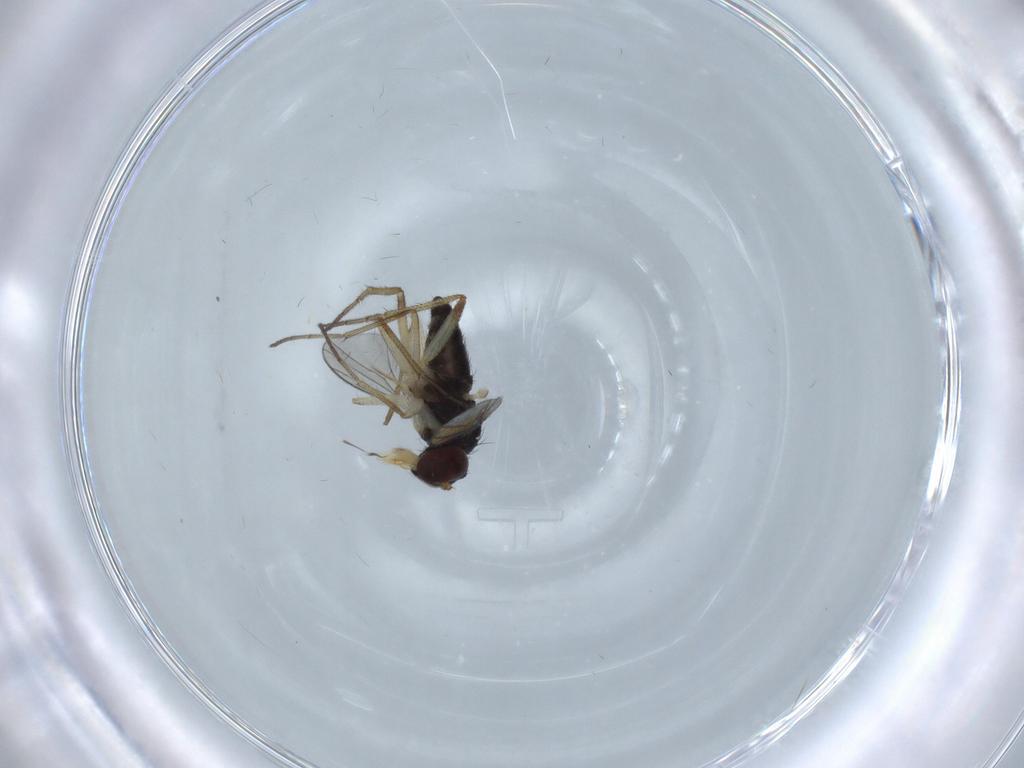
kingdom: Animalia
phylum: Arthropoda
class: Insecta
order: Diptera
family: Dolichopodidae
